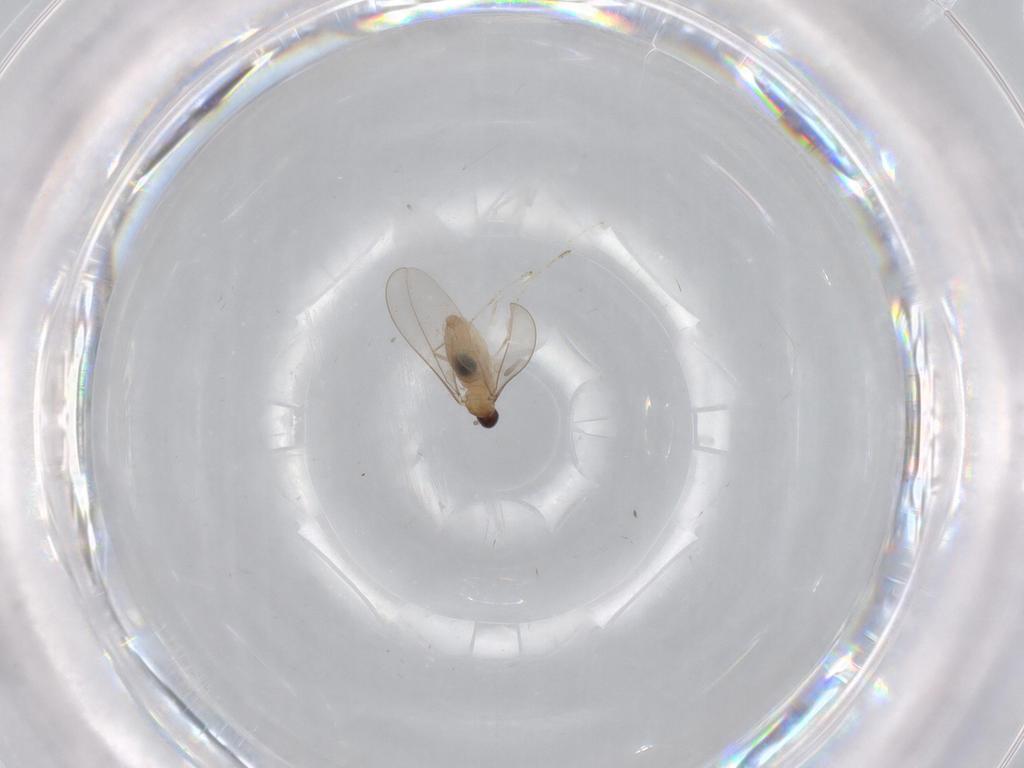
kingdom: Animalia
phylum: Arthropoda
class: Insecta
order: Diptera
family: Cecidomyiidae
